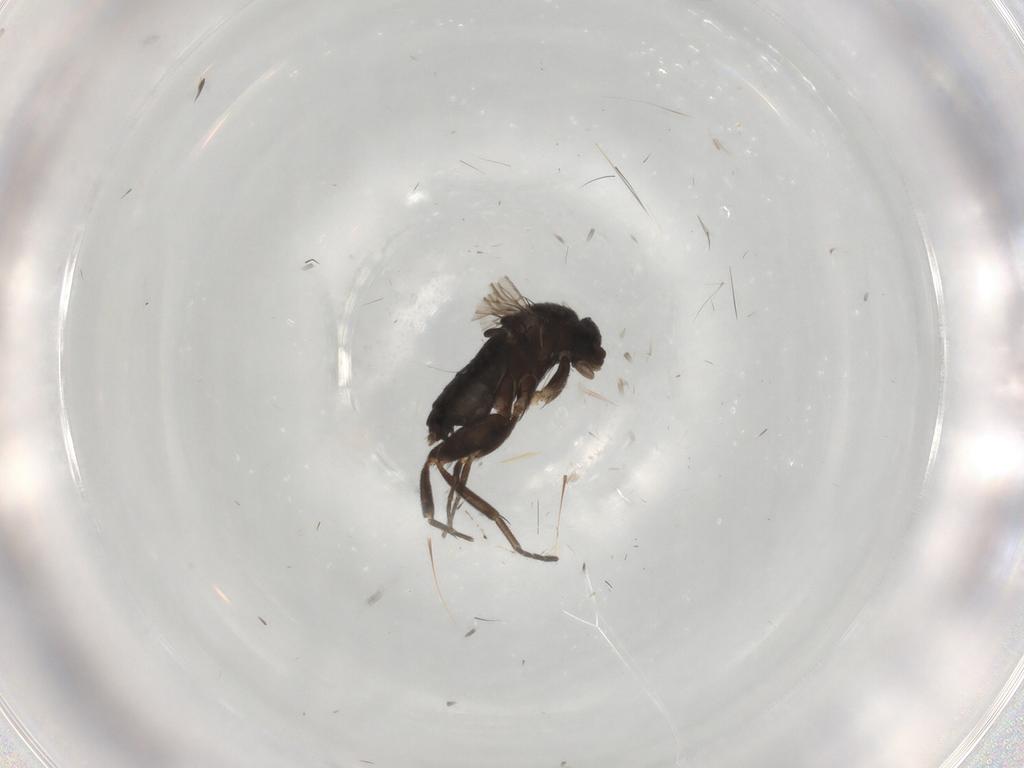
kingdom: Animalia
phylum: Arthropoda
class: Insecta
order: Diptera
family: Phoridae
